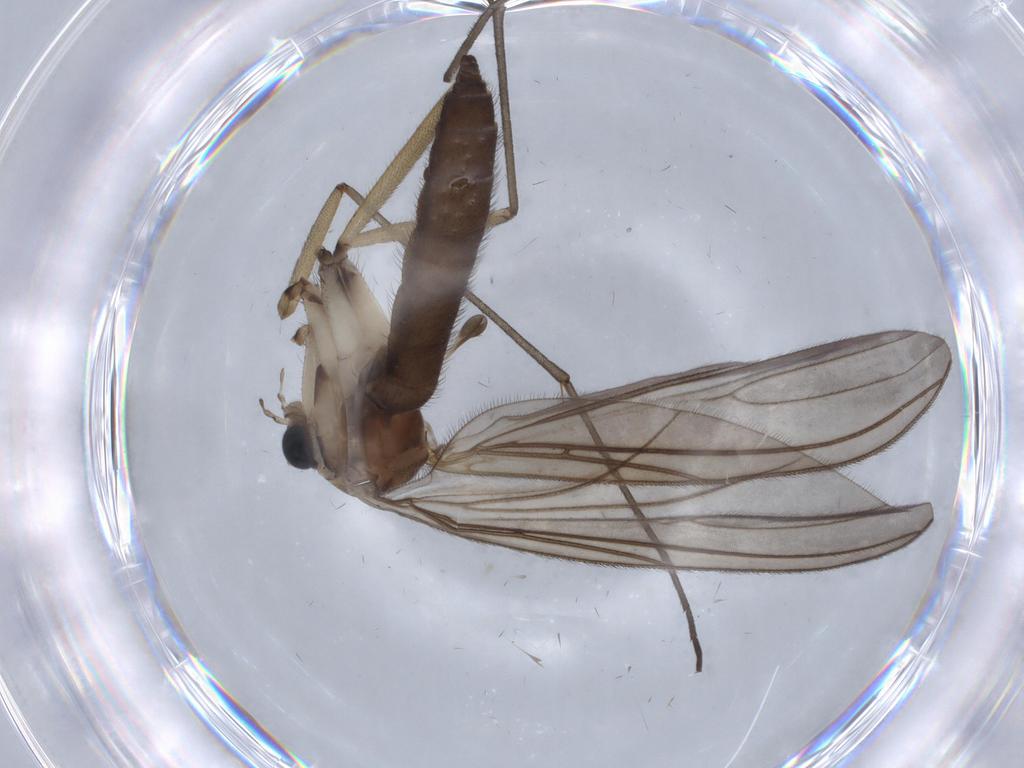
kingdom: Animalia
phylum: Arthropoda
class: Insecta
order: Diptera
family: Sciaridae
